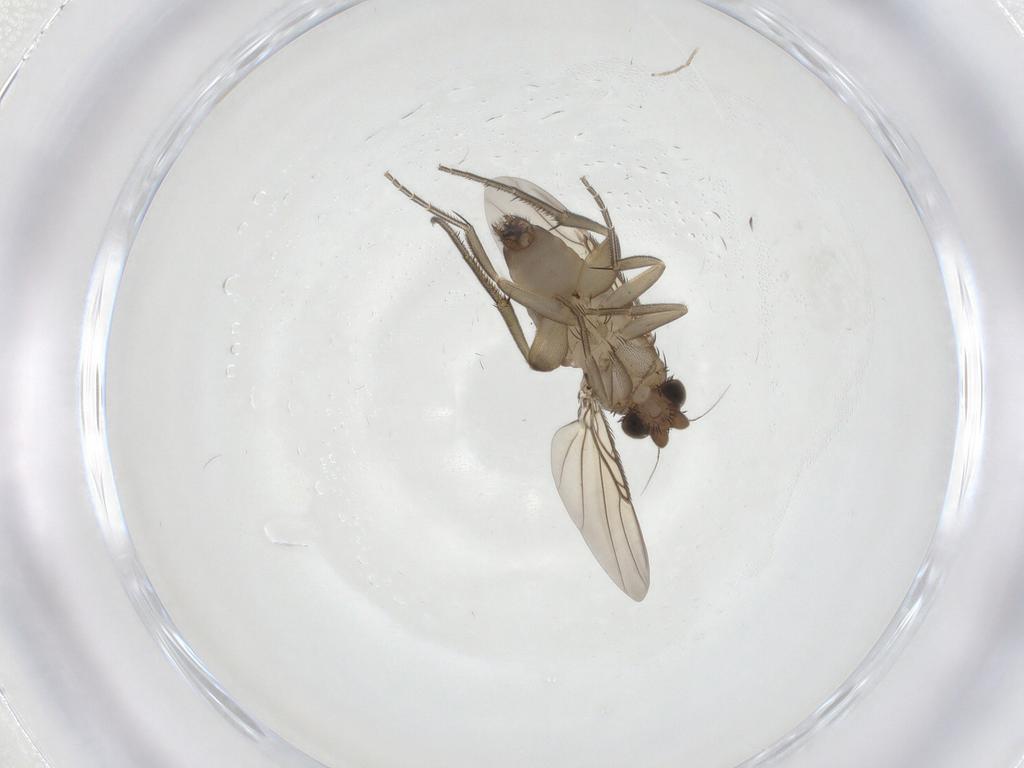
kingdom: Animalia
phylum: Arthropoda
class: Insecta
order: Diptera
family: Phoridae
